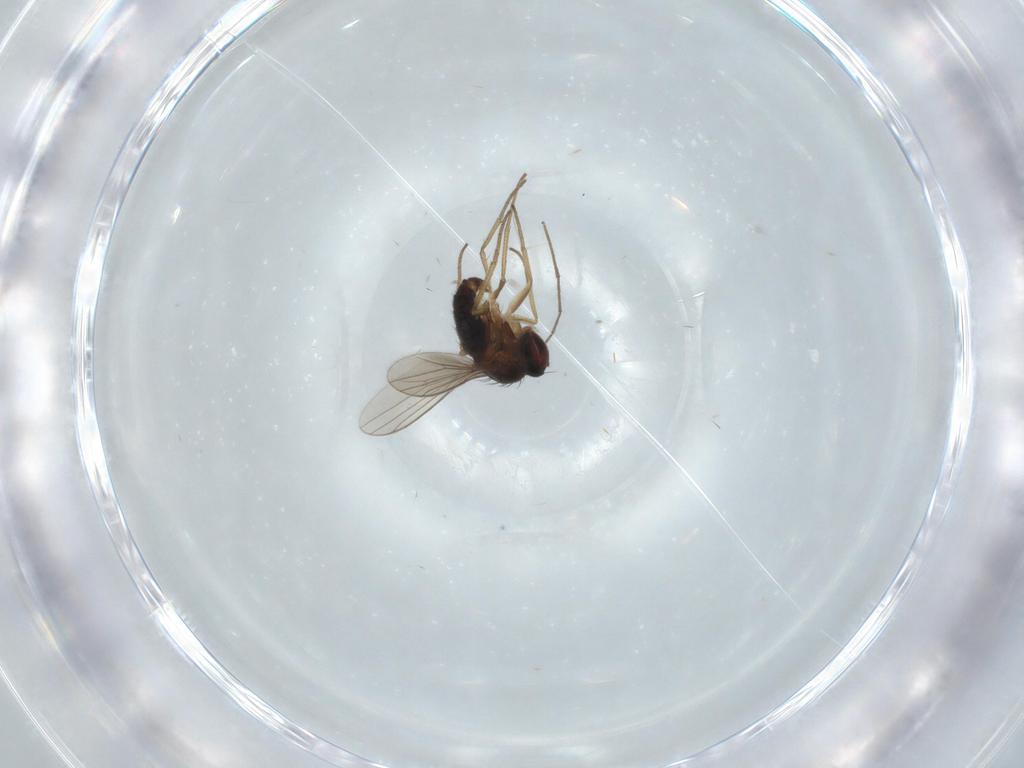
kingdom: Animalia
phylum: Arthropoda
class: Insecta
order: Diptera
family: Dolichopodidae
